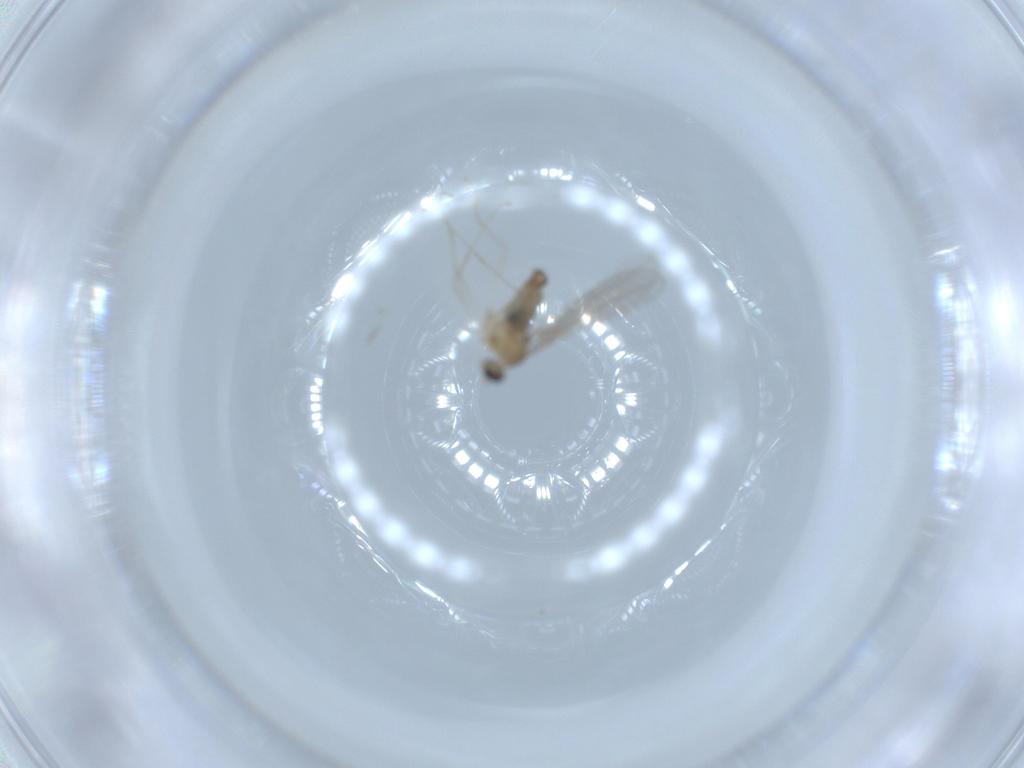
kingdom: Animalia
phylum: Arthropoda
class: Insecta
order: Diptera
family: Cecidomyiidae
